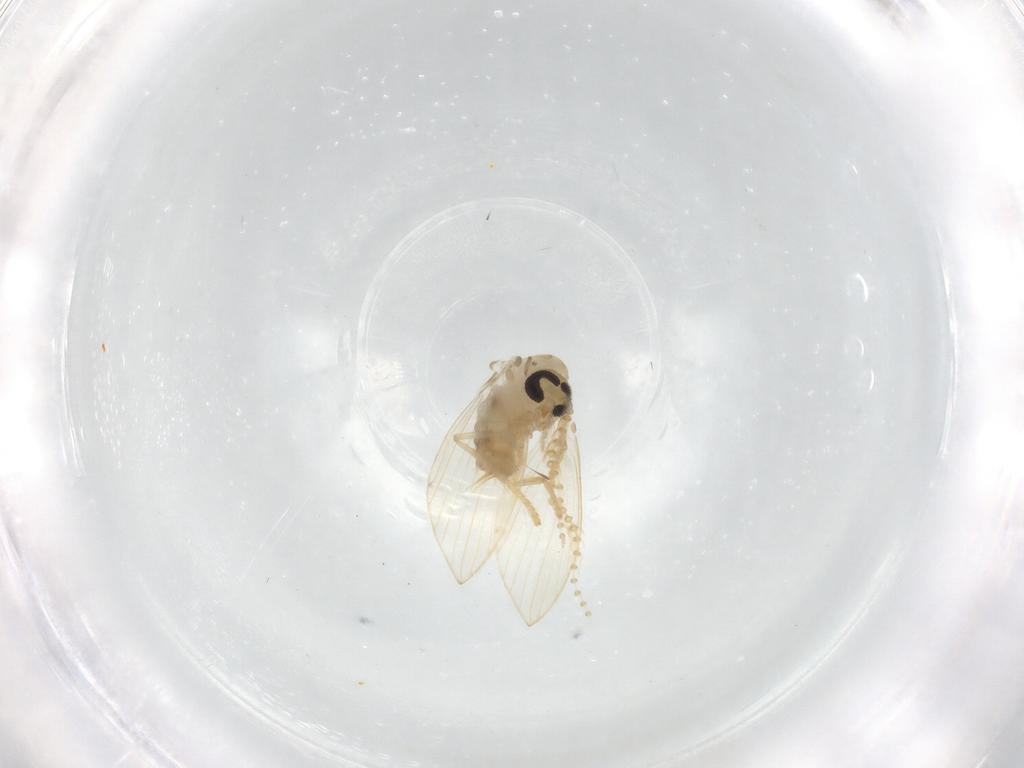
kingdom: Animalia
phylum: Arthropoda
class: Insecta
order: Diptera
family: Psychodidae
